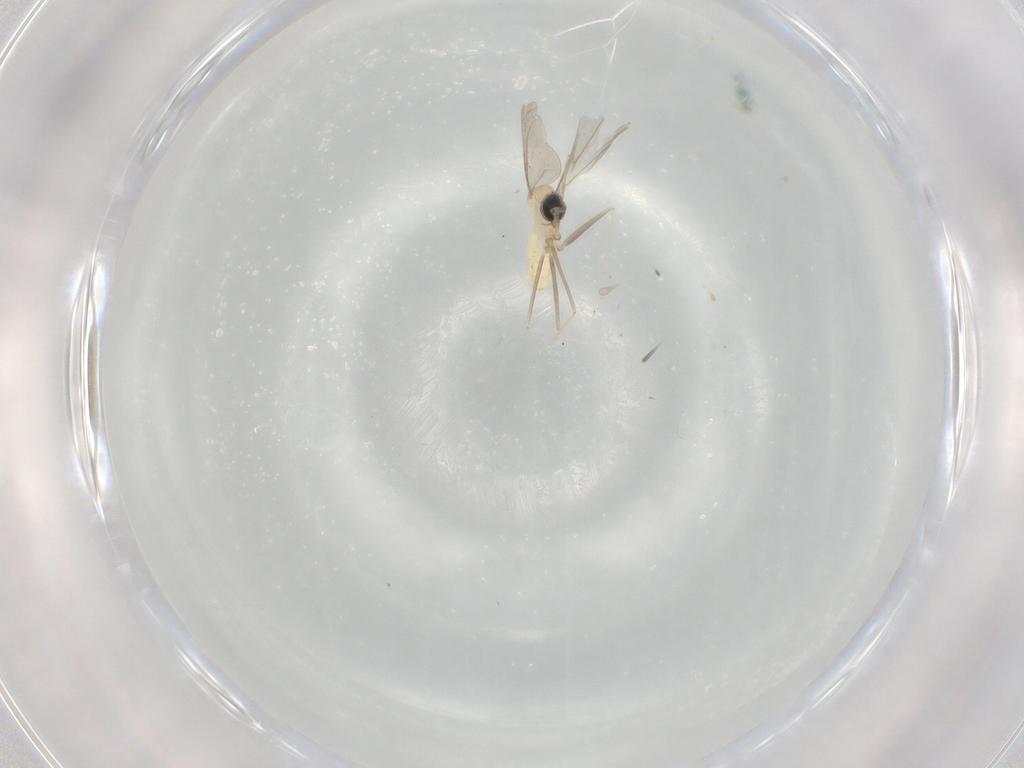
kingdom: Animalia
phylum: Arthropoda
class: Insecta
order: Diptera
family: Cecidomyiidae
